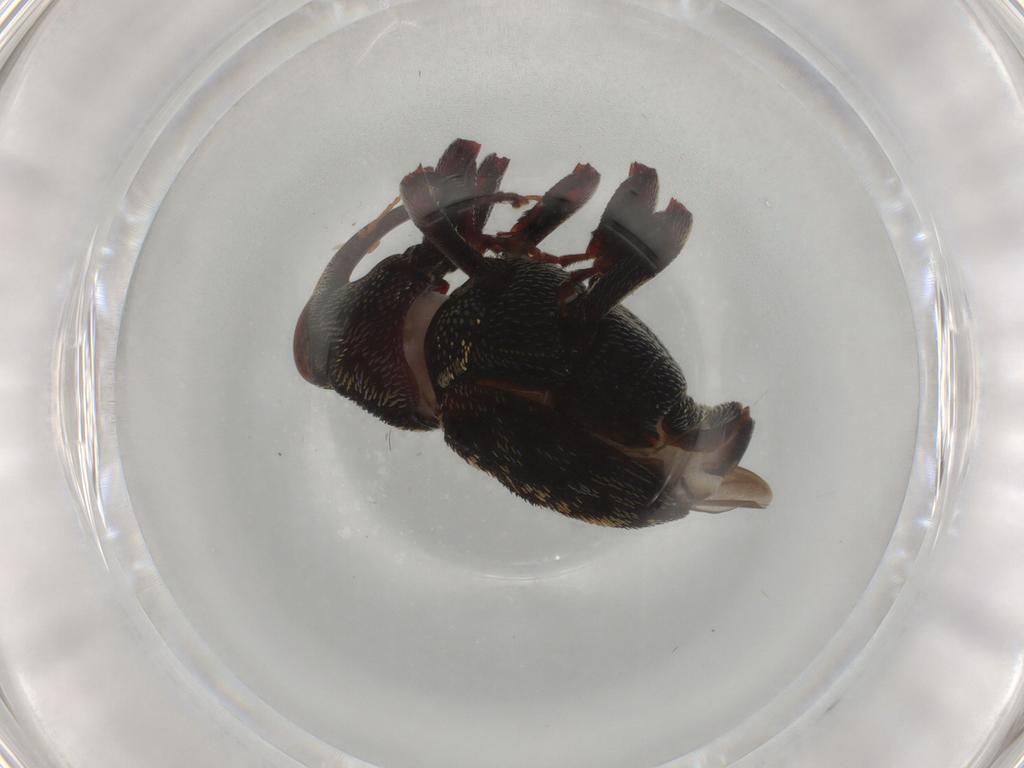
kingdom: Animalia
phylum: Arthropoda
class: Insecta
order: Coleoptera
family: Curculionidae
